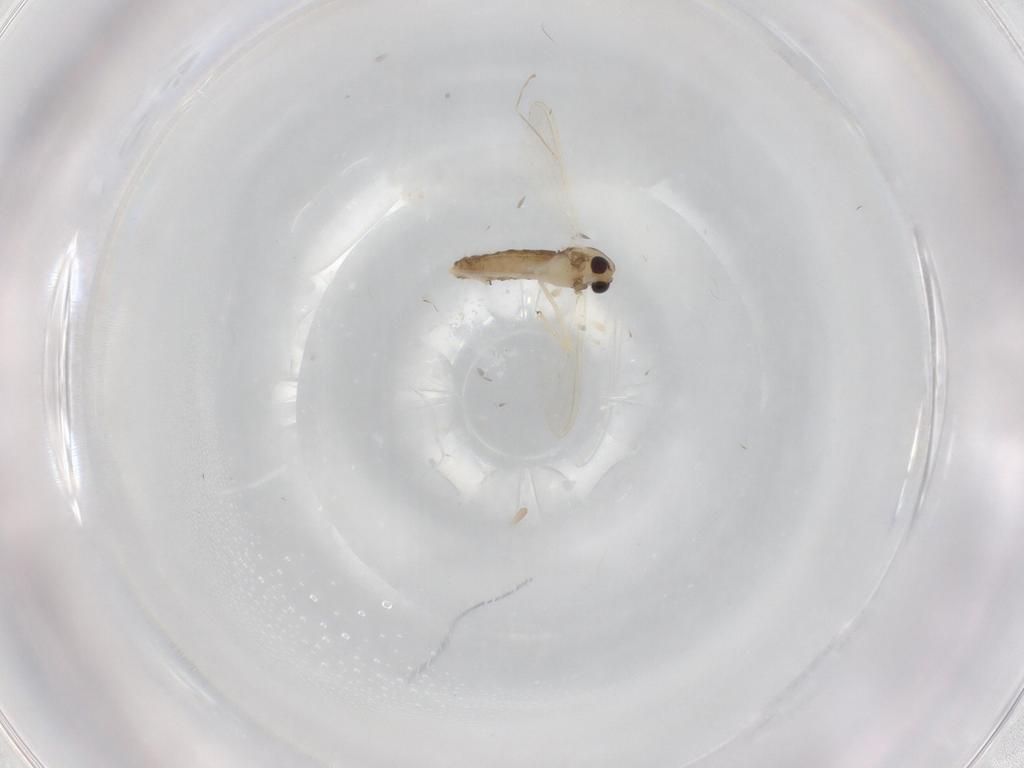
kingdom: Animalia
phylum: Arthropoda
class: Insecta
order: Diptera
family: Chironomidae
